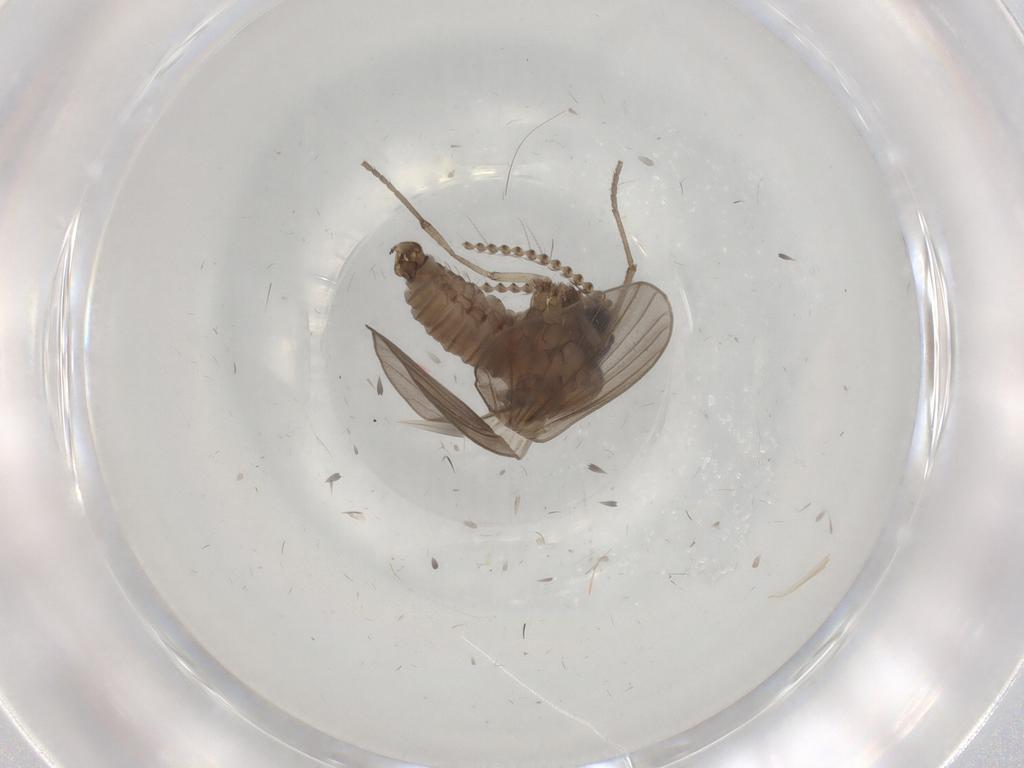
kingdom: Animalia
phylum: Arthropoda
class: Insecta
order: Diptera
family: Psychodidae
